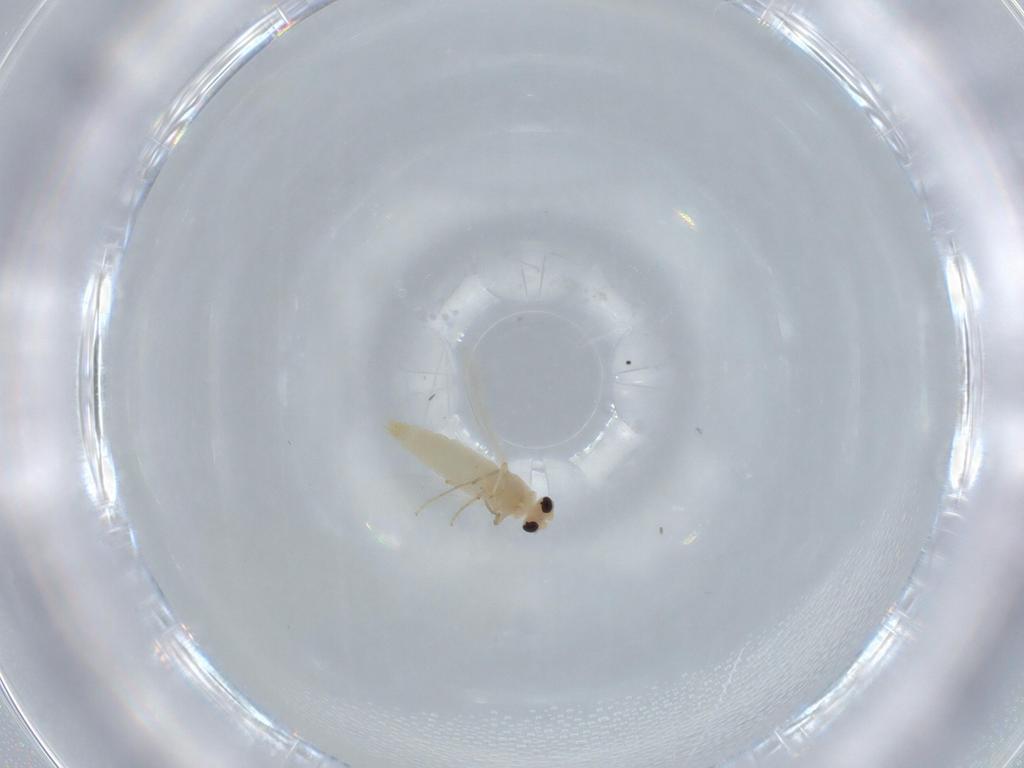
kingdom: Animalia
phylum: Arthropoda
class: Insecta
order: Diptera
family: Chironomidae
